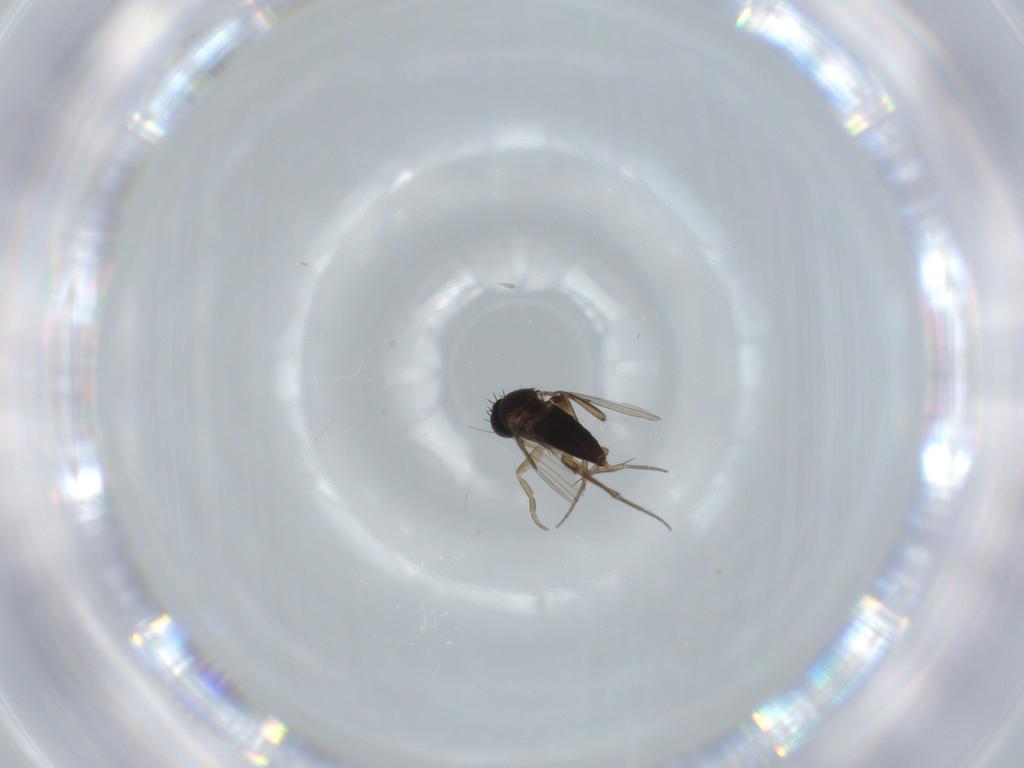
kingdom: Animalia
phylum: Arthropoda
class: Insecta
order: Diptera
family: Phoridae
